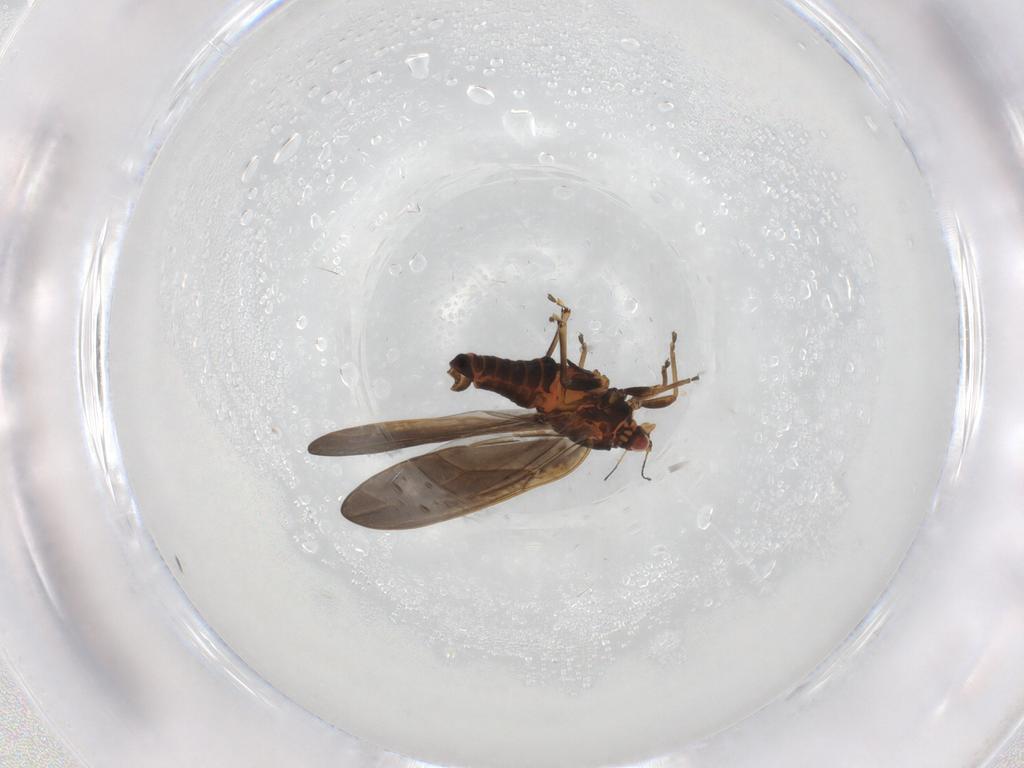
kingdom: Animalia
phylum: Arthropoda
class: Insecta
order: Hemiptera
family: Triozidae
